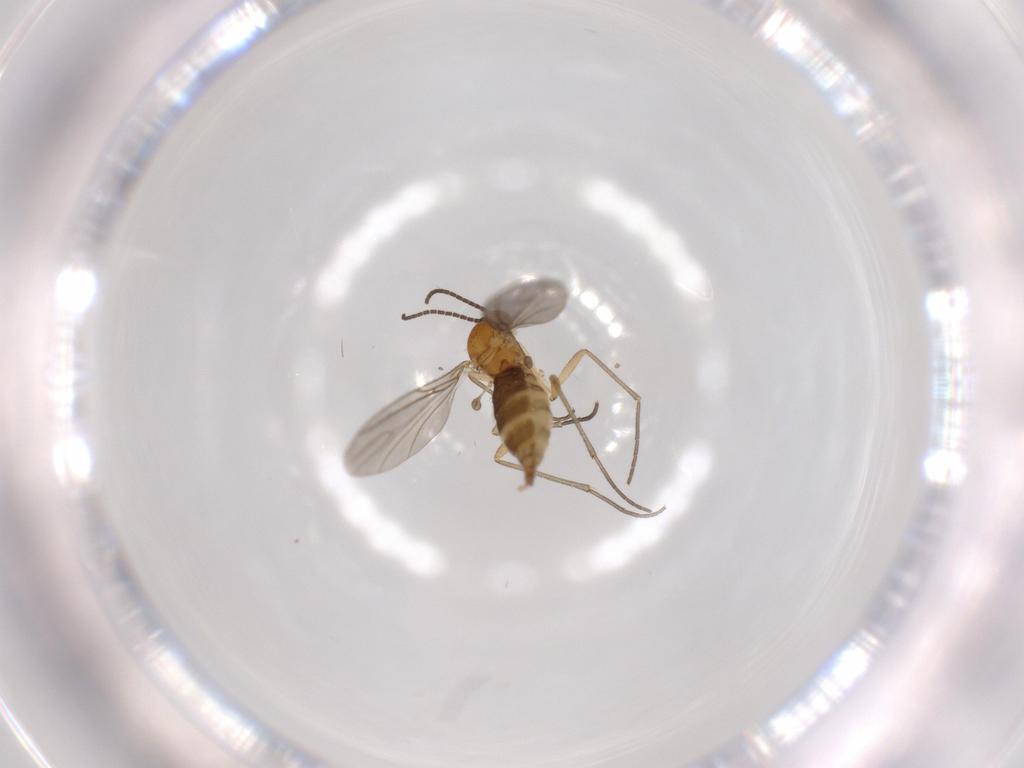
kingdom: Animalia
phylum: Arthropoda
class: Insecta
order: Diptera
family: Sciaridae
